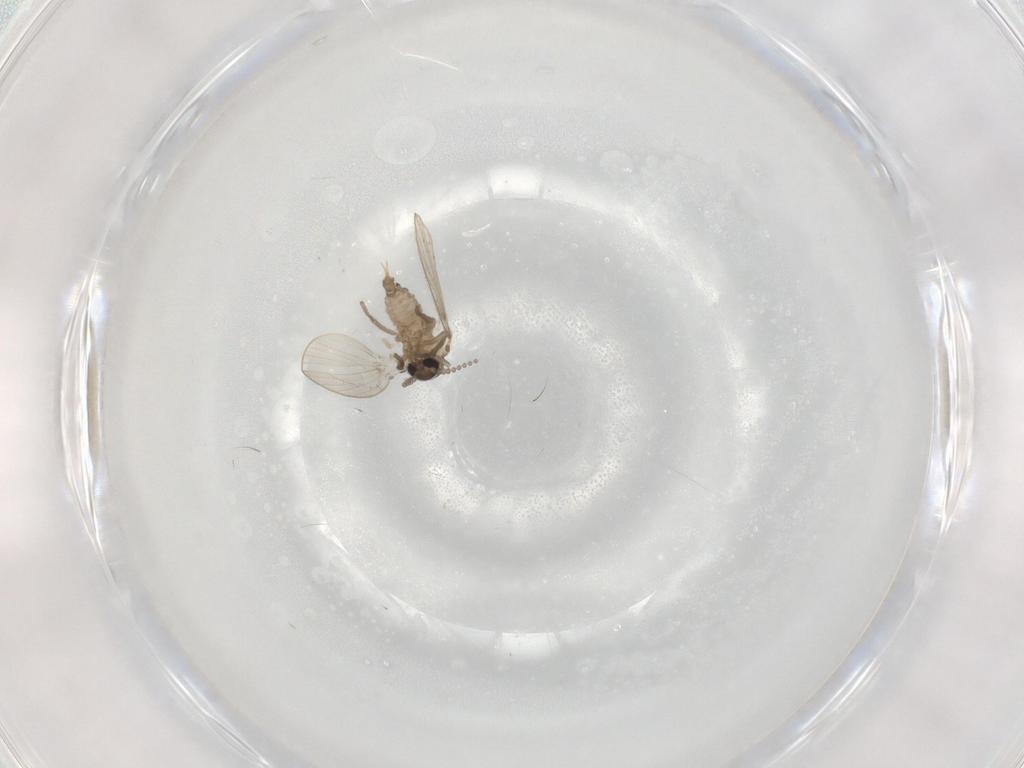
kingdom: Animalia
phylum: Arthropoda
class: Insecta
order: Diptera
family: Psychodidae
